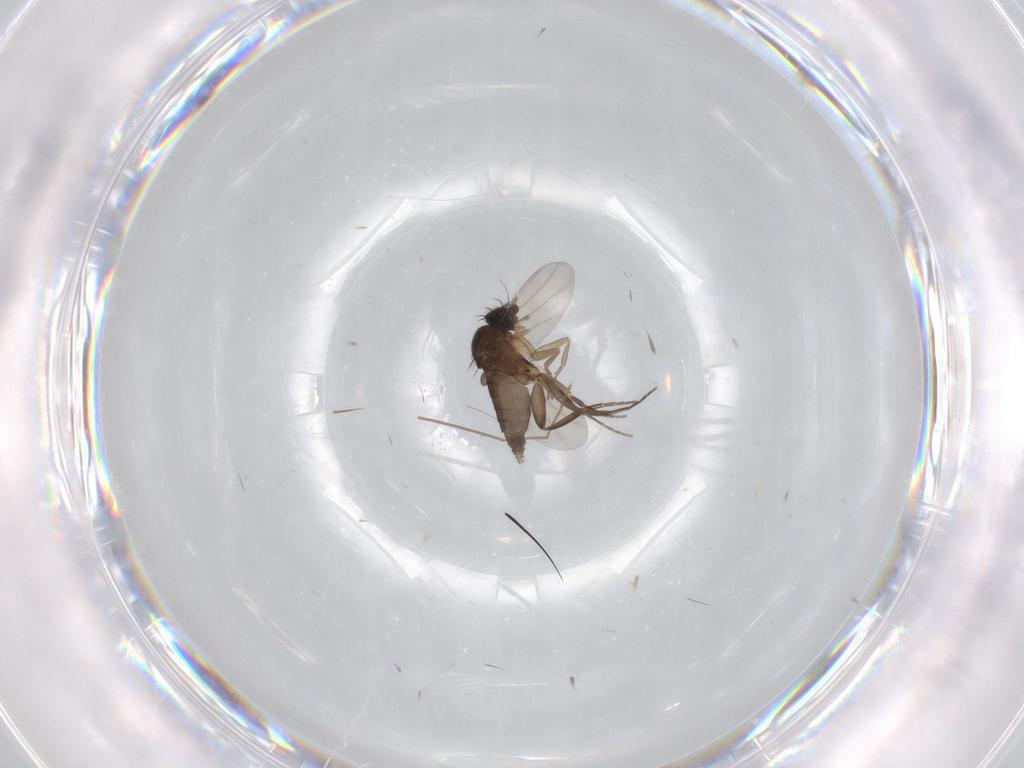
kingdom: Animalia
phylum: Arthropoda
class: Insecta
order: Diptera
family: Phoridae
